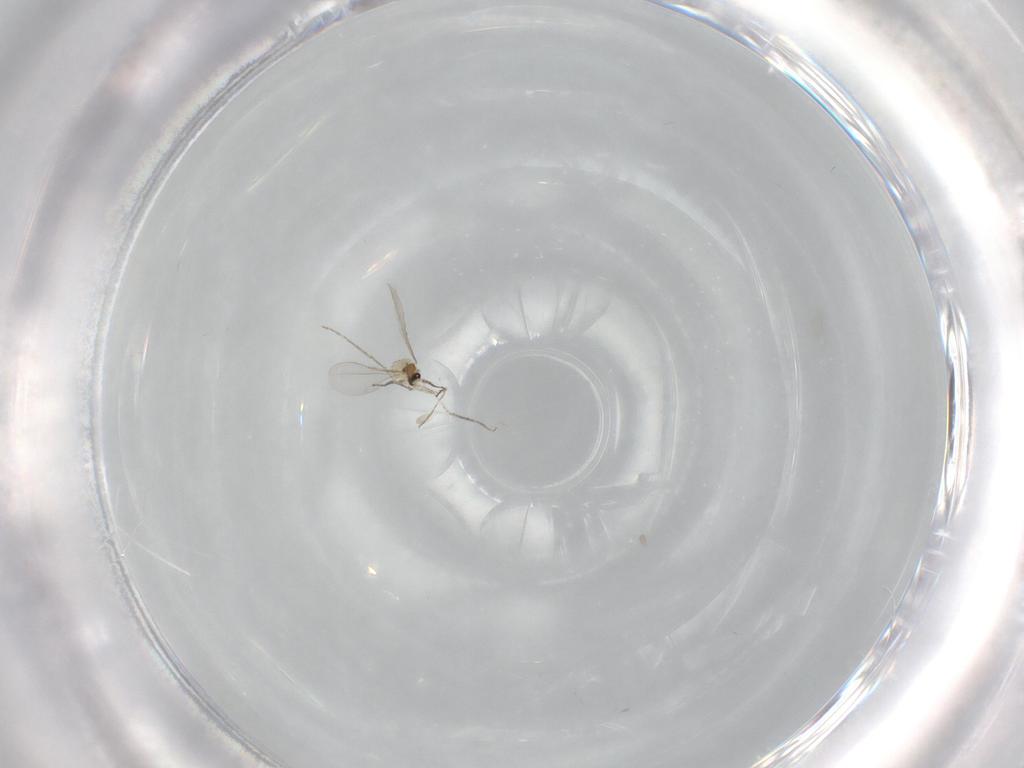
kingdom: Animalia
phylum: Arthropoda
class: Insecta
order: Diptera
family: Cecidomyiidae
